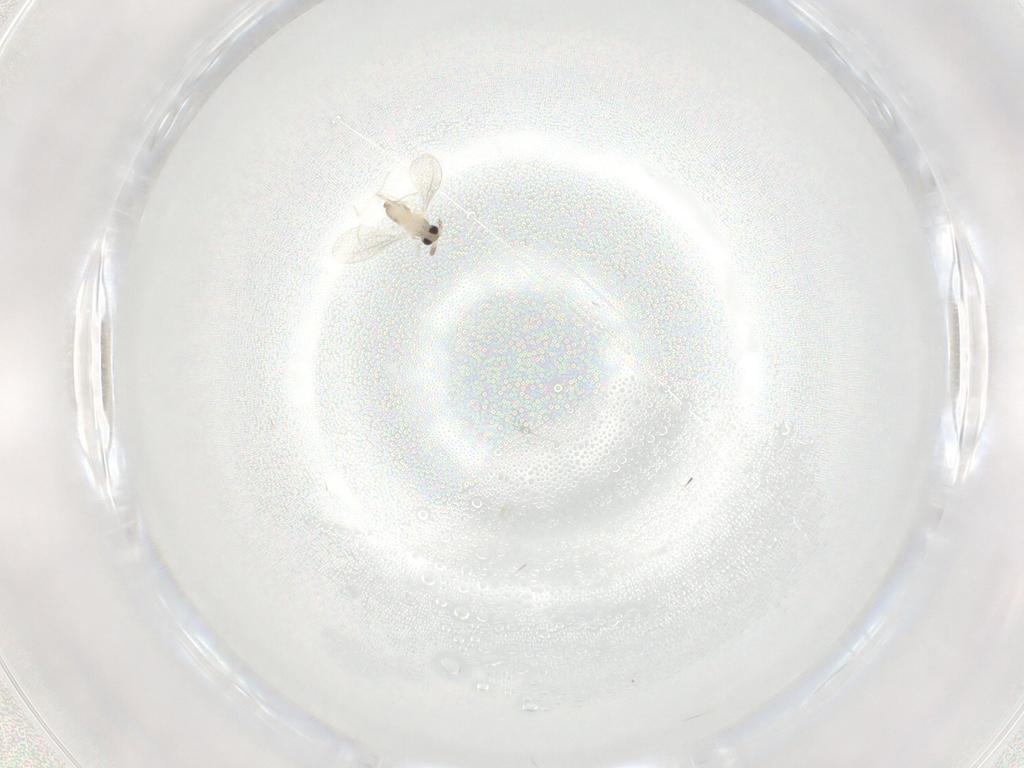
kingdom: Animalia
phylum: Arthropoda
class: Insecta
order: Diptera
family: Cecidomyiidae
